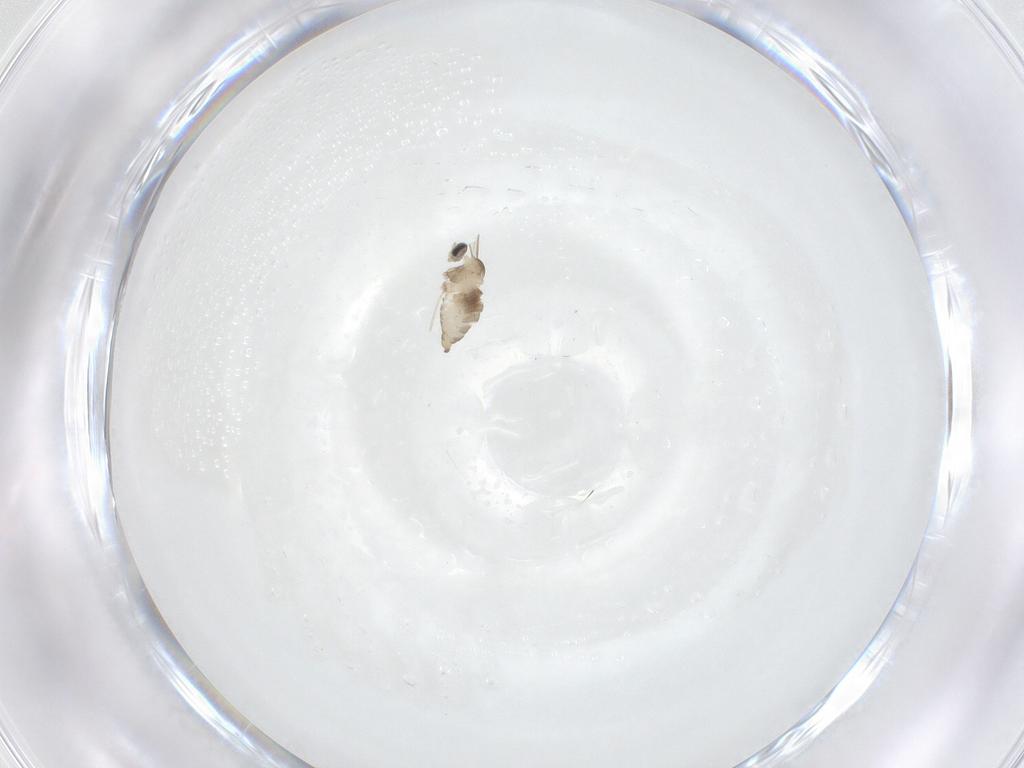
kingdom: Animalia
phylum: Arthropoda
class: Insecta
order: Diptera
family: Cecidomyiidae
